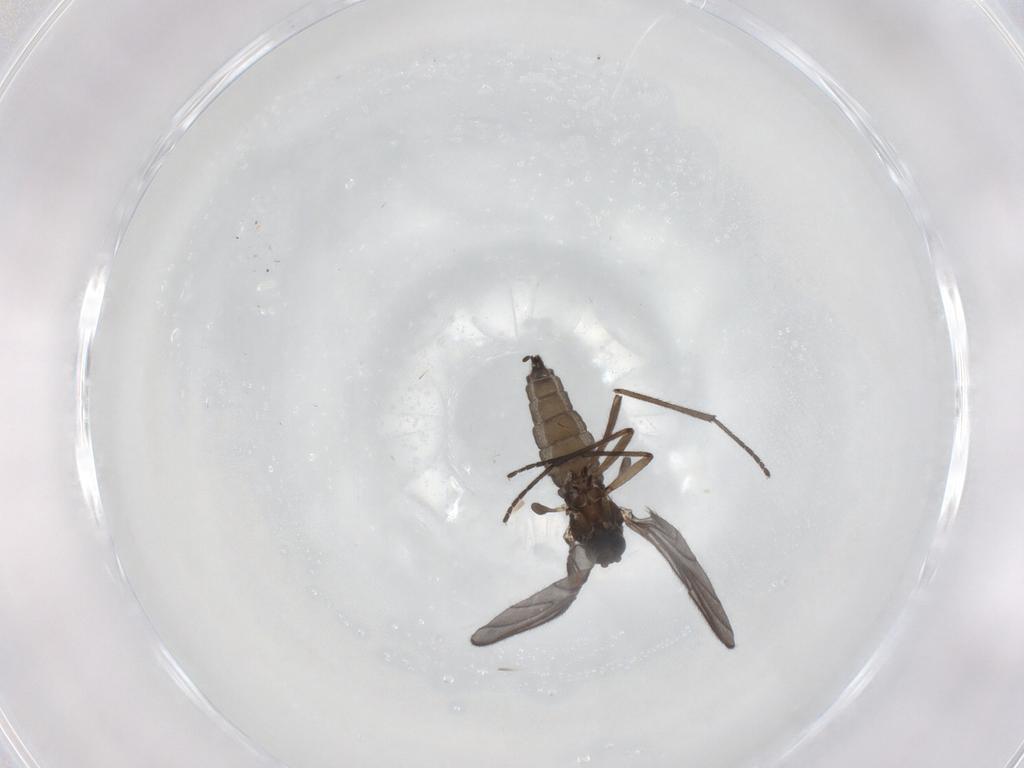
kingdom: Animalia
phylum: Arthropoda
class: Insecta
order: Diptera
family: Sciaridae
